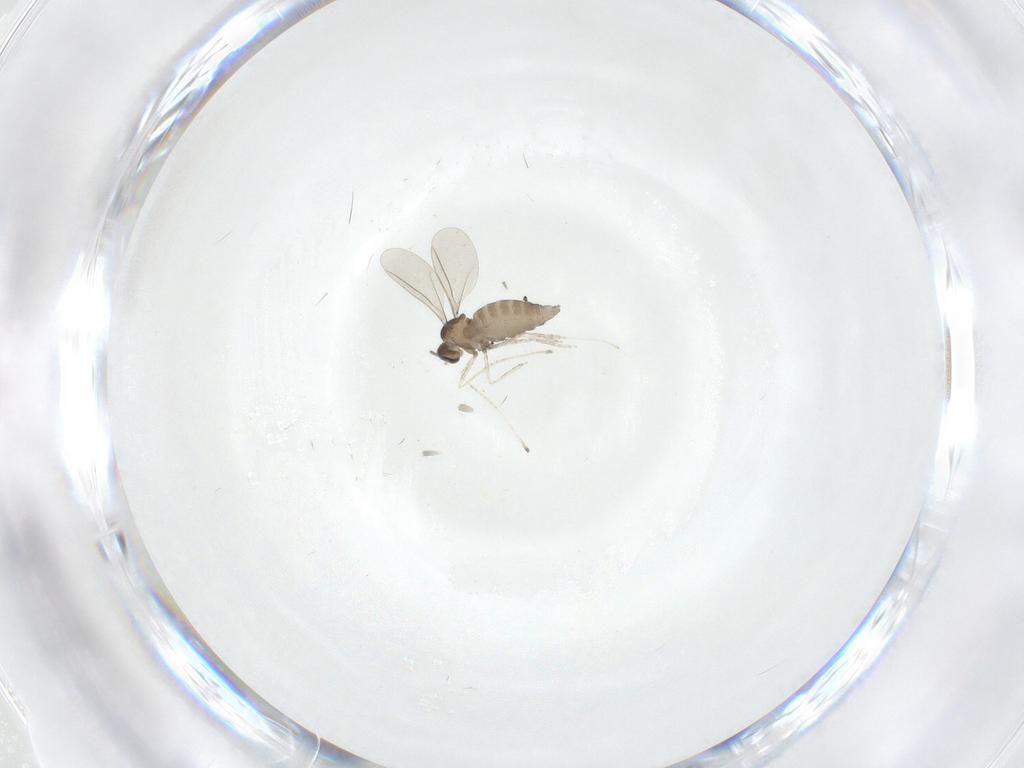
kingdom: Animalia
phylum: Arthropoda
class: Insecta
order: Diptera
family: Cecidomyiidae
